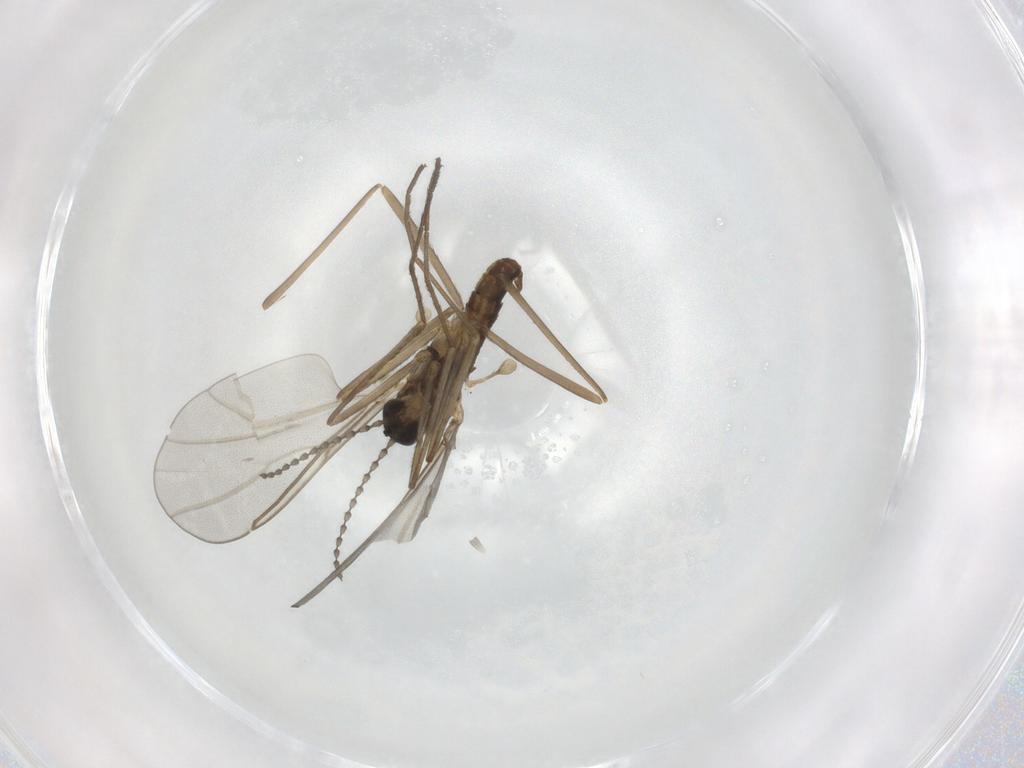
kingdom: Animalia
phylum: Arthropoda
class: Insecta
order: Diptera
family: Cecidomyiidae
